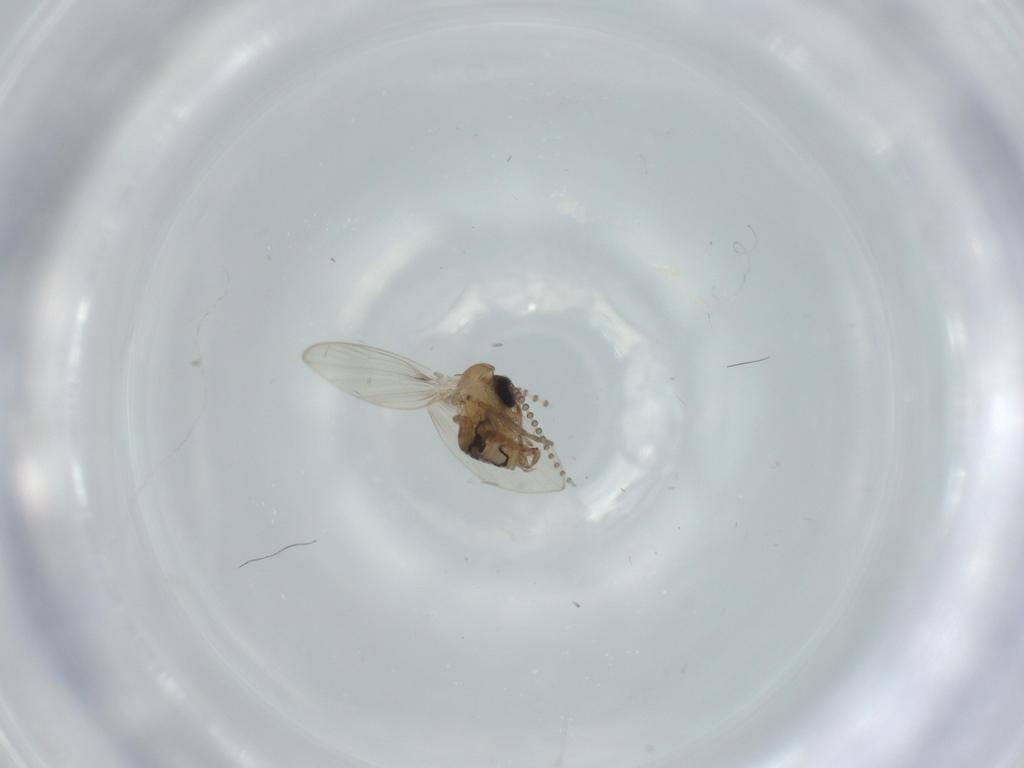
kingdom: Animalia
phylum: Arthropoda
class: Insecta
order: Diptera
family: Psychodidae
